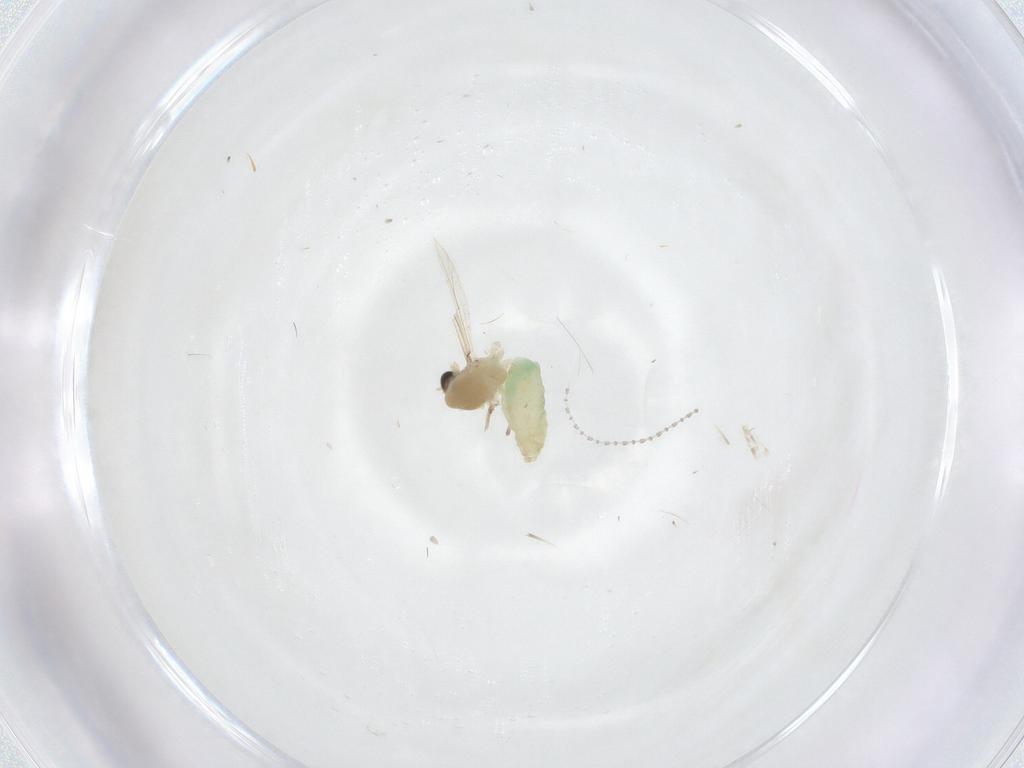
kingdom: Animalia
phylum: Arthropoda
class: Insecta
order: Diptera
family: Chironomidae
